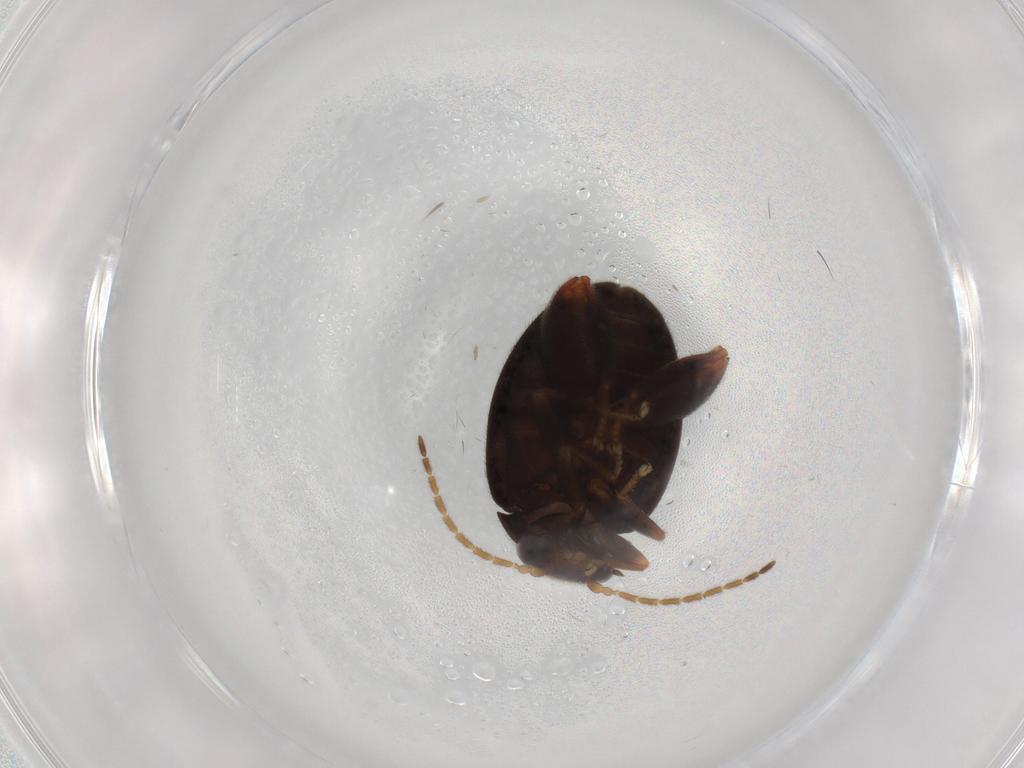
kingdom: Animalia
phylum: Arthropoda
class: Insecta
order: Coleoptera
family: Scirtidae
